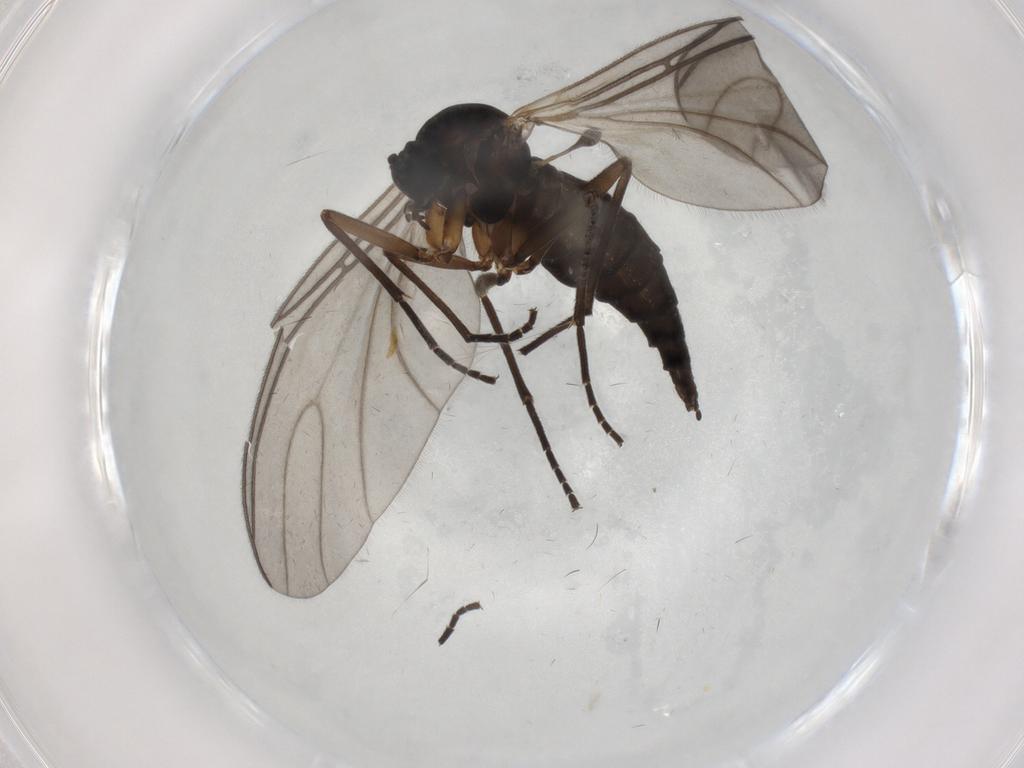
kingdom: Animalia
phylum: Arthropoda
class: Insecta
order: Diptera
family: Sciaridae
